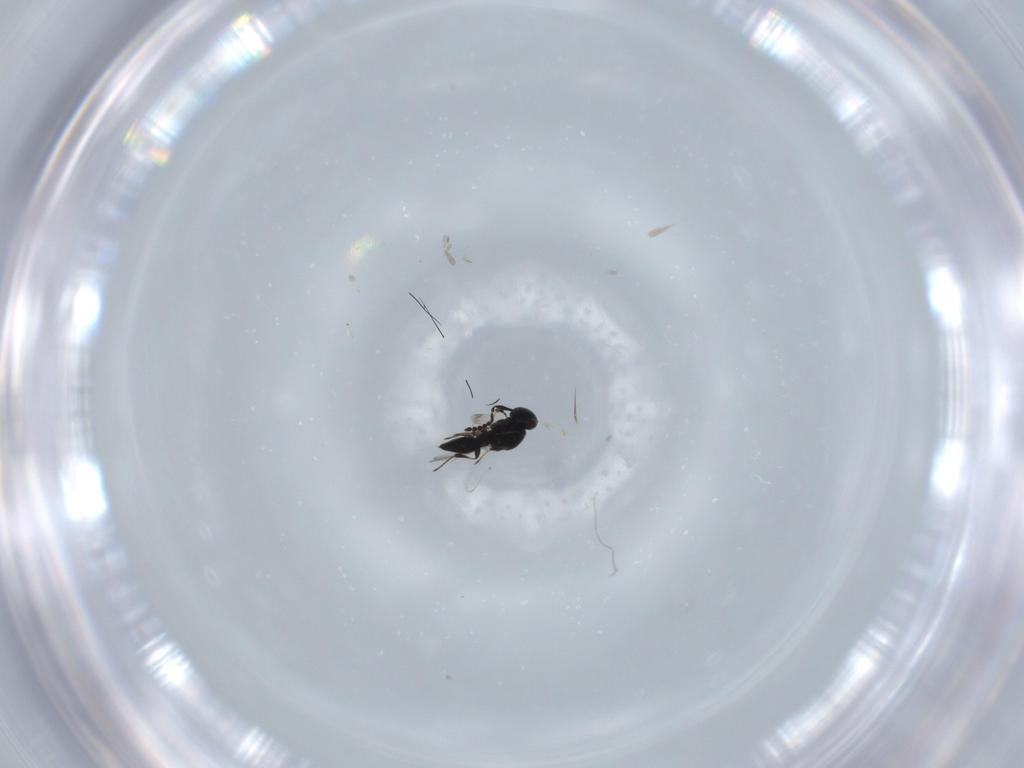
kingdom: Animalia
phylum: Arthropoda
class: Insecta
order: Hymenoptera
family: Platygastridae
